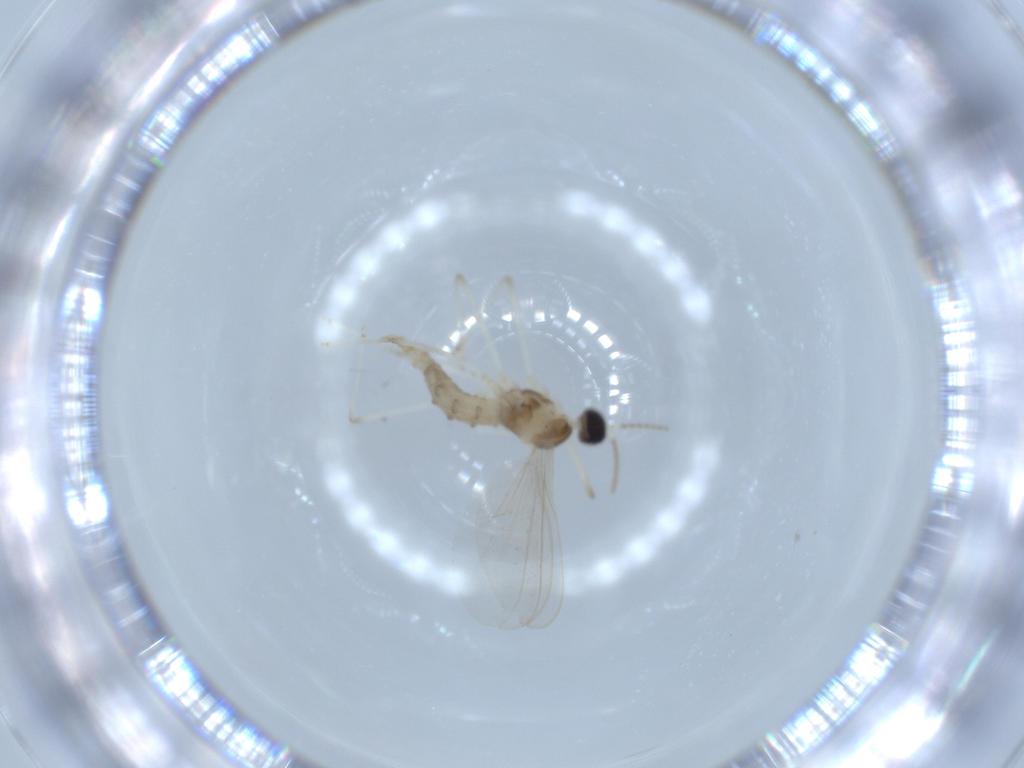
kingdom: Animalia
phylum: Arthropoda
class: Insecta
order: Diptera
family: Cecidomyiidae
